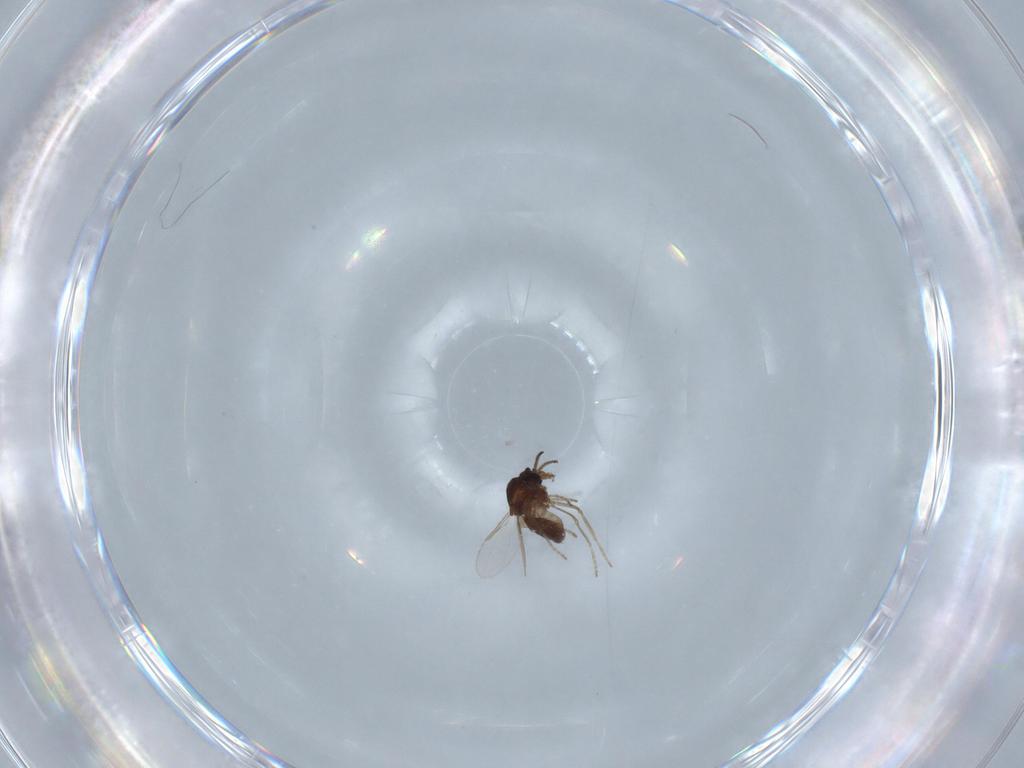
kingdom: Animalia
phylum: Arthropoda
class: Insecta
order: Diptera
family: Ceratopogonidae
